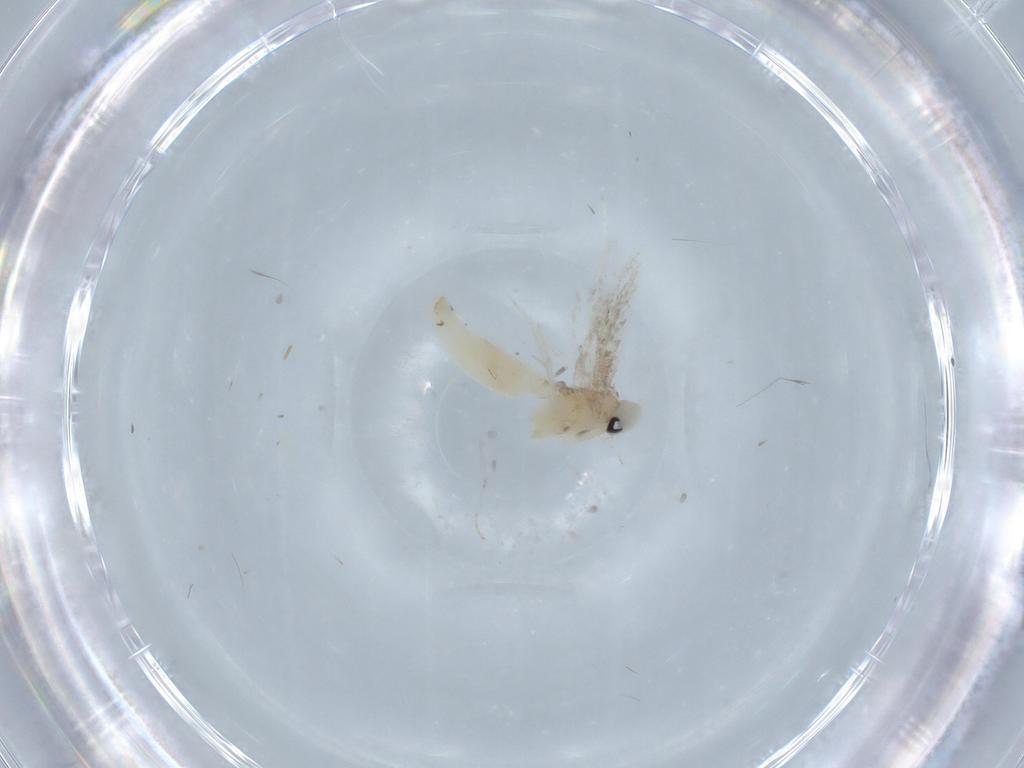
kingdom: Animalia
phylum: Arthropoda
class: Insecta
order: Lepidoptera
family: Gracillariidae
